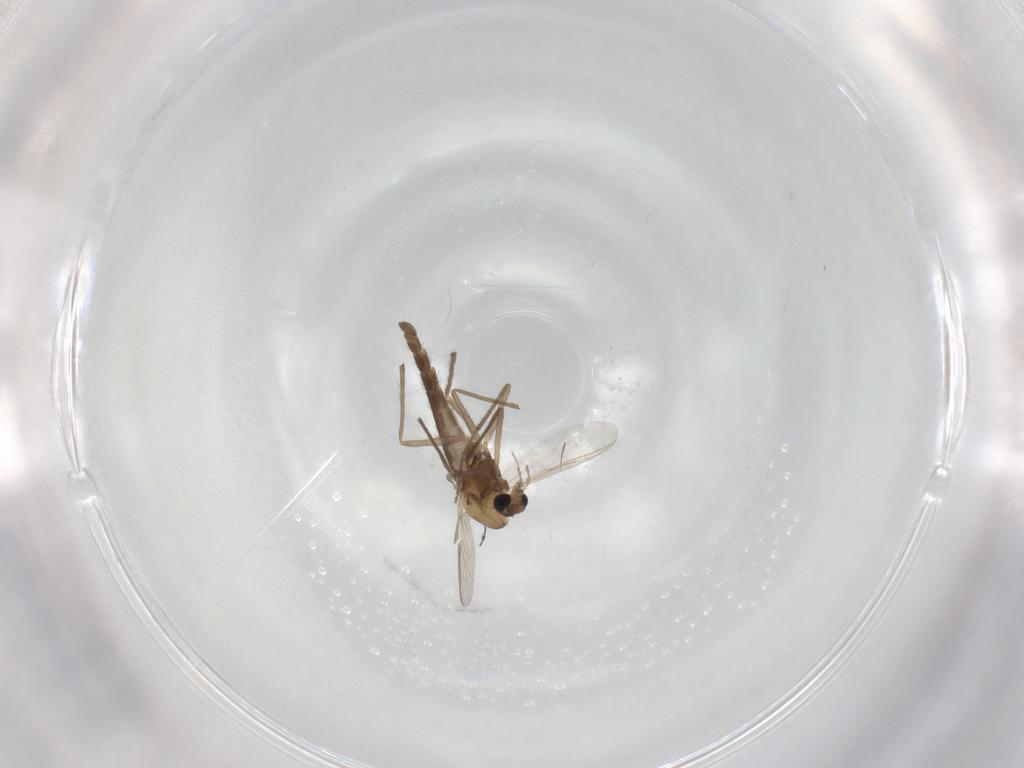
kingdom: Animalia
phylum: Arthropoda
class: Insecta
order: Diptera
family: Chironomidae
